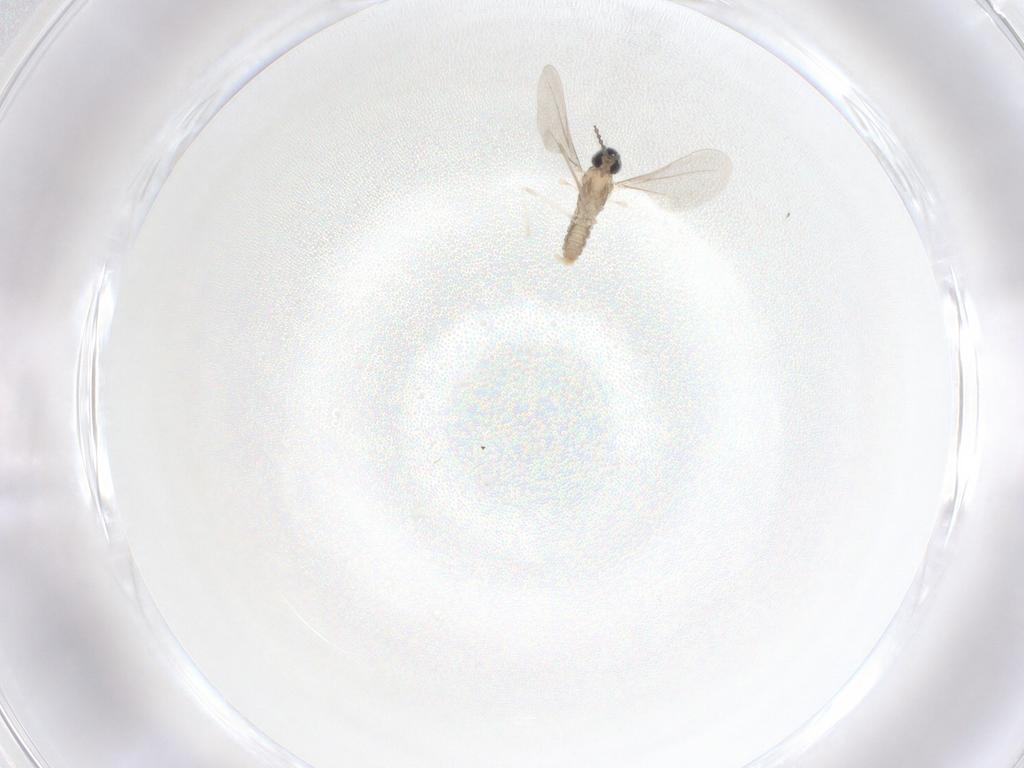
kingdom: Animalia
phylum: Arthropoda
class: Insecta
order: Diptera
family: Cecidomyiidae
